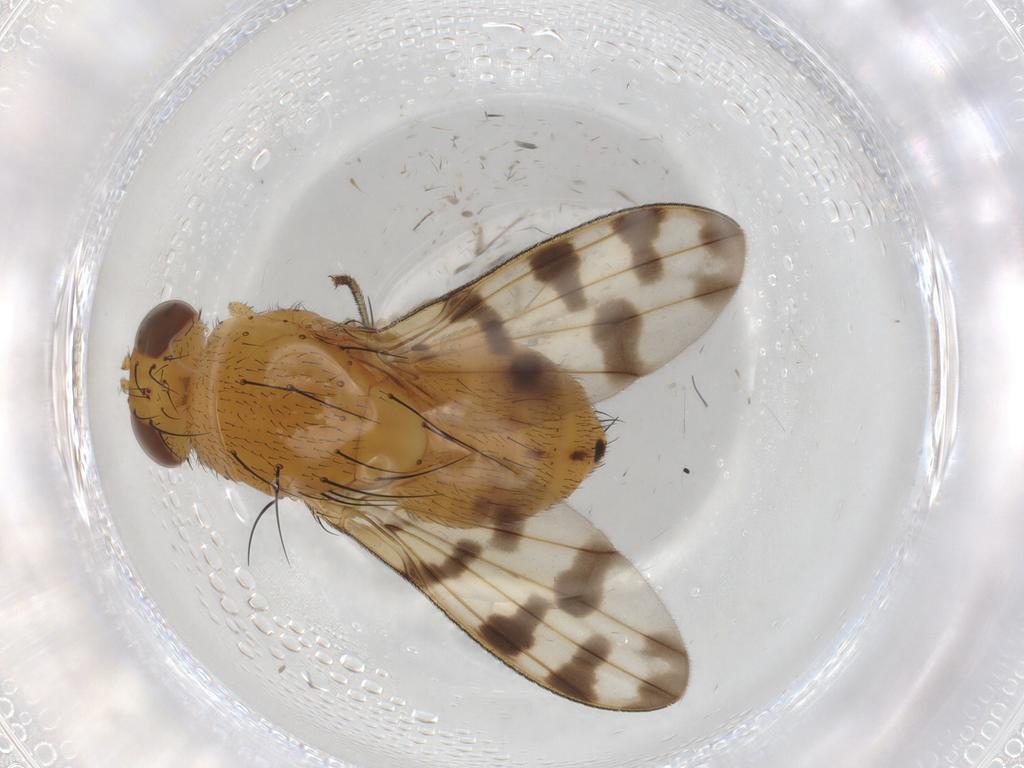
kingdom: Animalia
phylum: Arthropoda
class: Insecta
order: Diptera
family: Chironomidae
